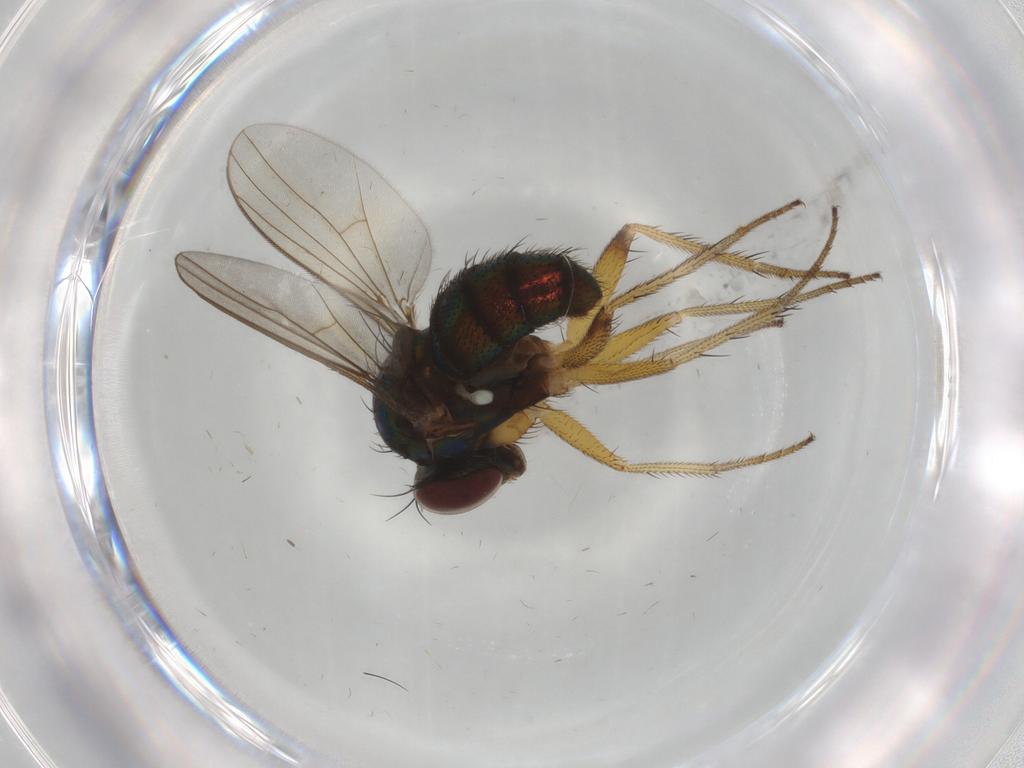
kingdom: Animalia
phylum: Arthropoda
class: Insecta
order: Diptera
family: Dolichopodidae
